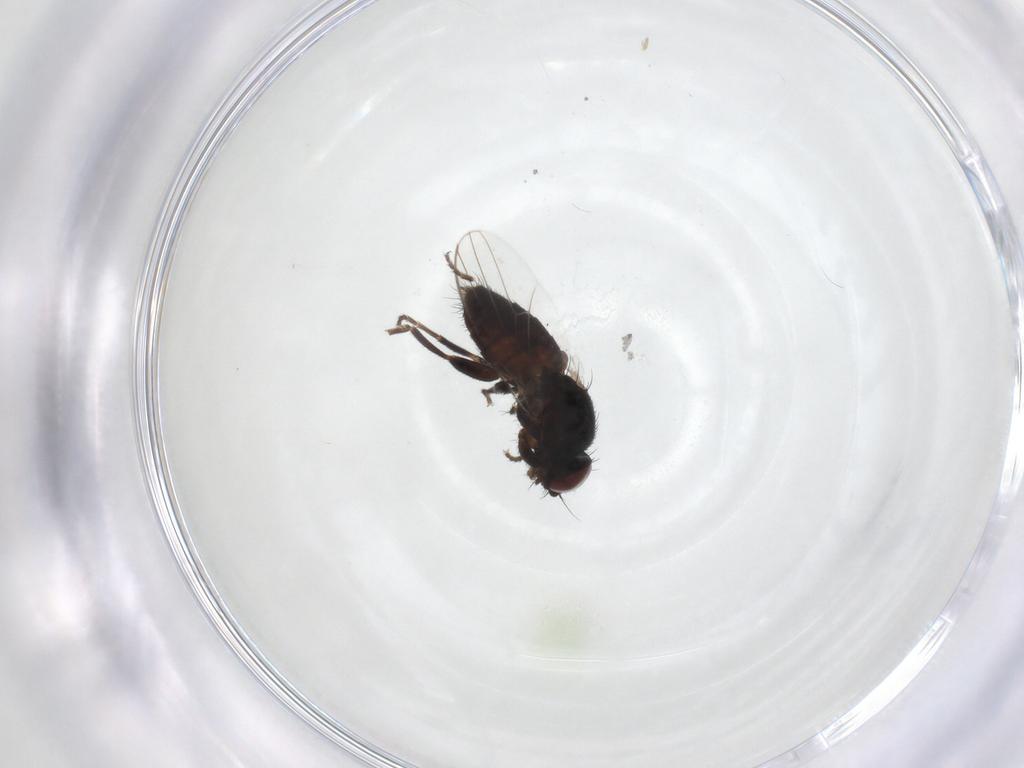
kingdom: Animalia
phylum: Arthropoda
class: Insecta
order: Diptera
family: Milichiidae
